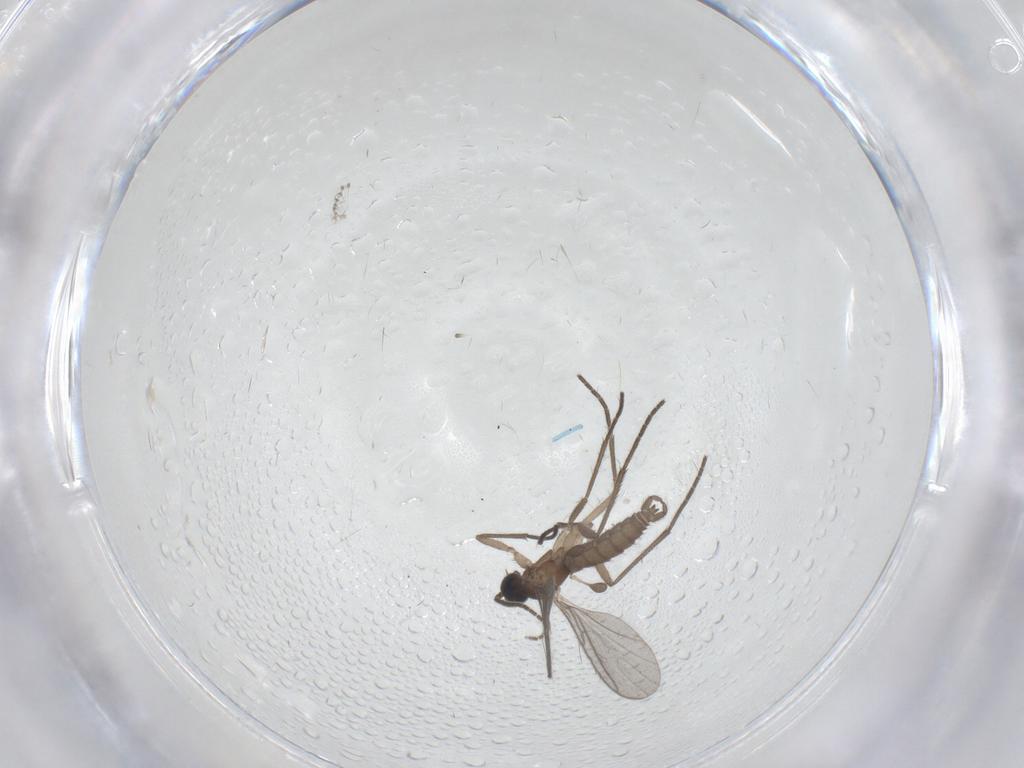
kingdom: Animalia
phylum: Arthropoda
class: Insecta
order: Diptera
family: Sciaridae
